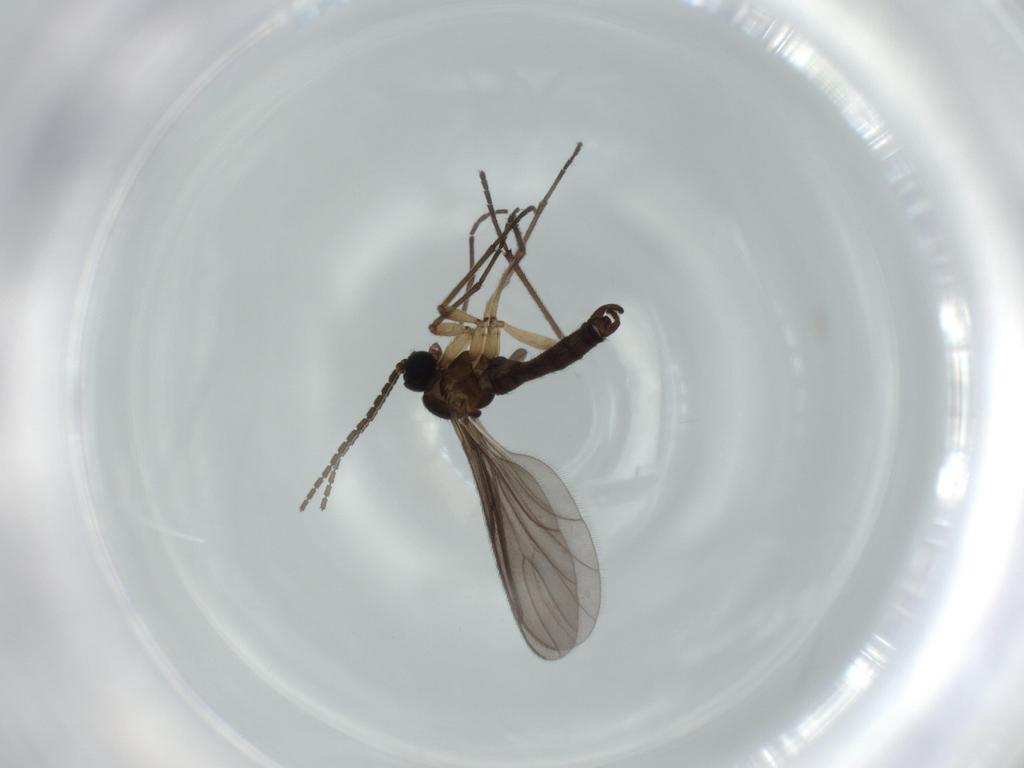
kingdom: Animalia
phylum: Arthropoda
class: Insecta
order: Diptera
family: Sciaridae
